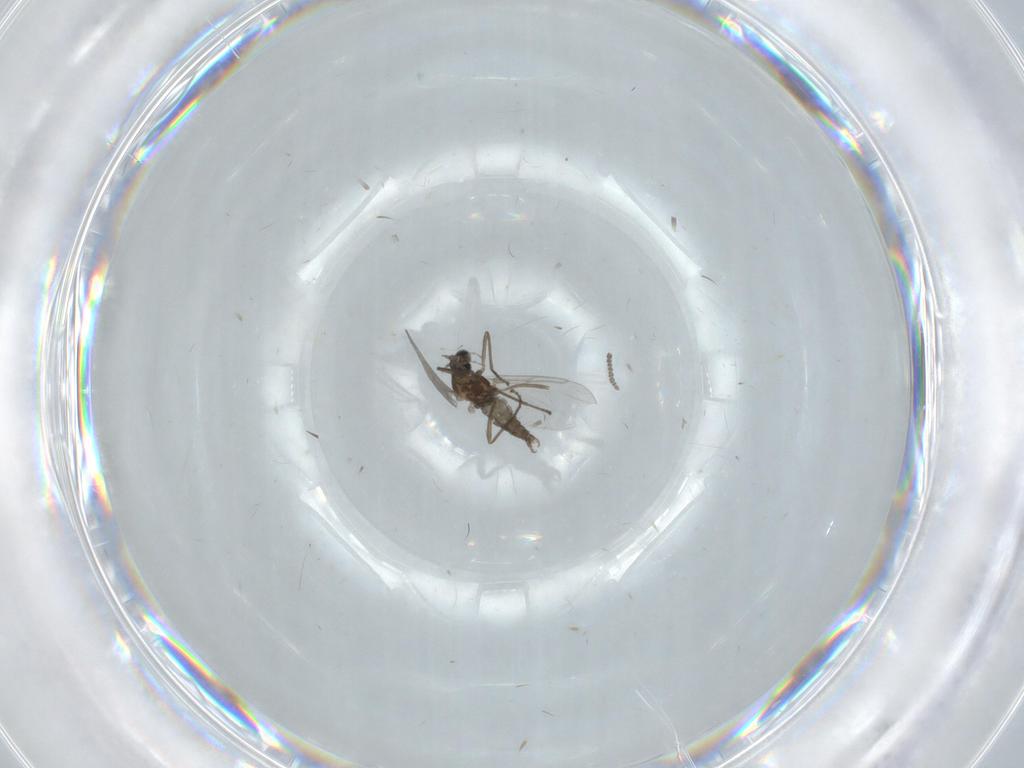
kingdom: Animalia
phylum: Arthropoda
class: Insecta
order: Diptera
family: Cecidomyiidae
